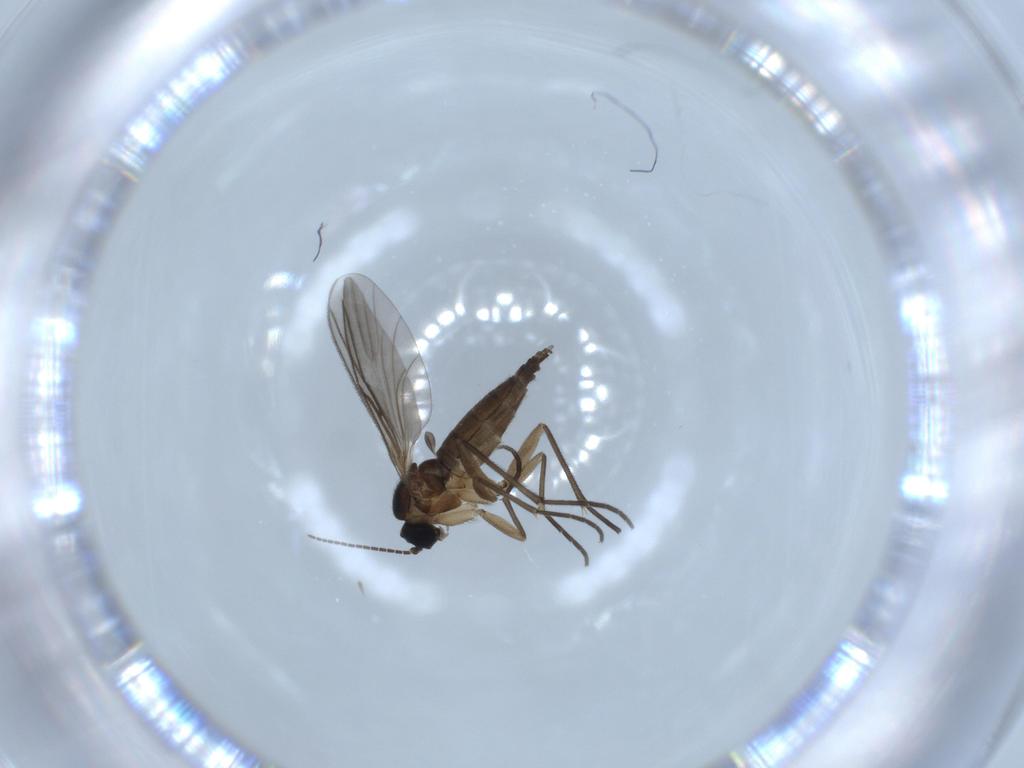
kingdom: Animalia
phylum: Arthropoda
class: Insecta
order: Diptera
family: Sciaridae
